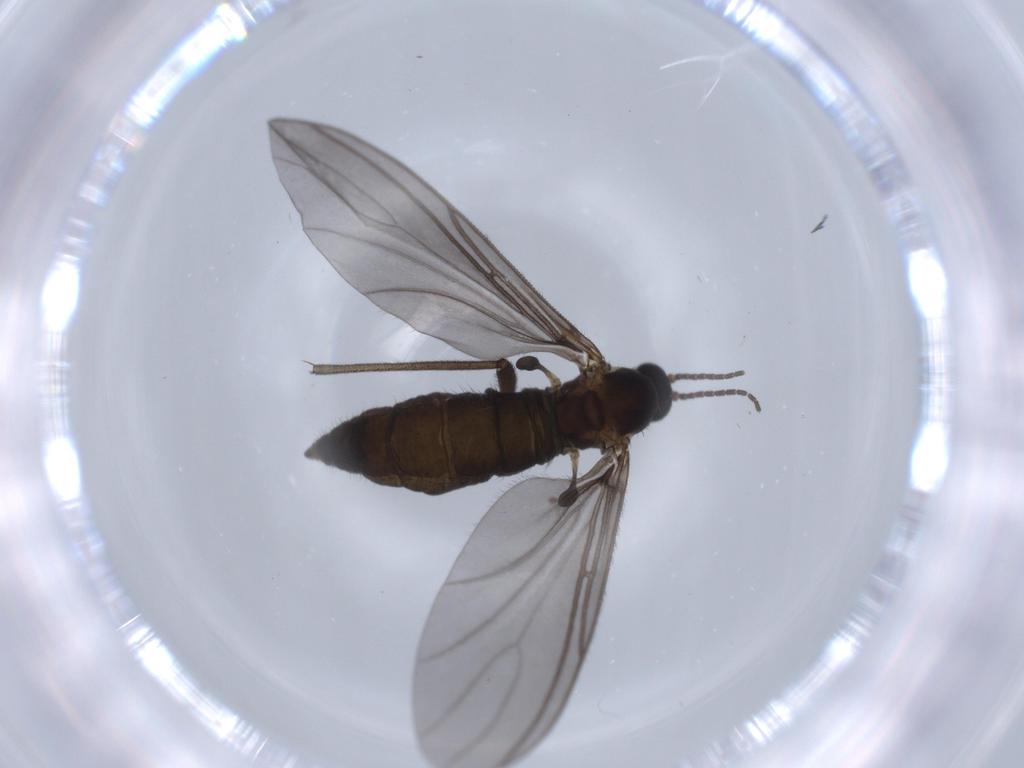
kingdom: Animalia
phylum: Arthropoda
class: Insecta
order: Diptera
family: Sciaridae
